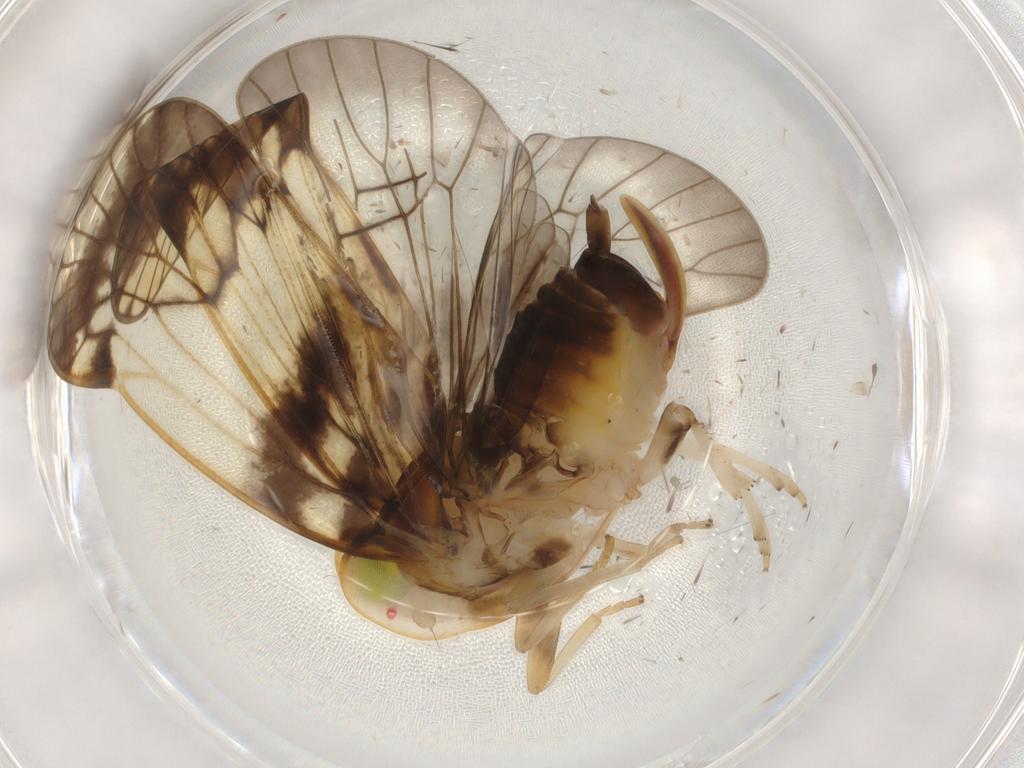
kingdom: Animalia
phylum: Arthropoda
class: Insecta
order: Hemiptera
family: Cixiidae
